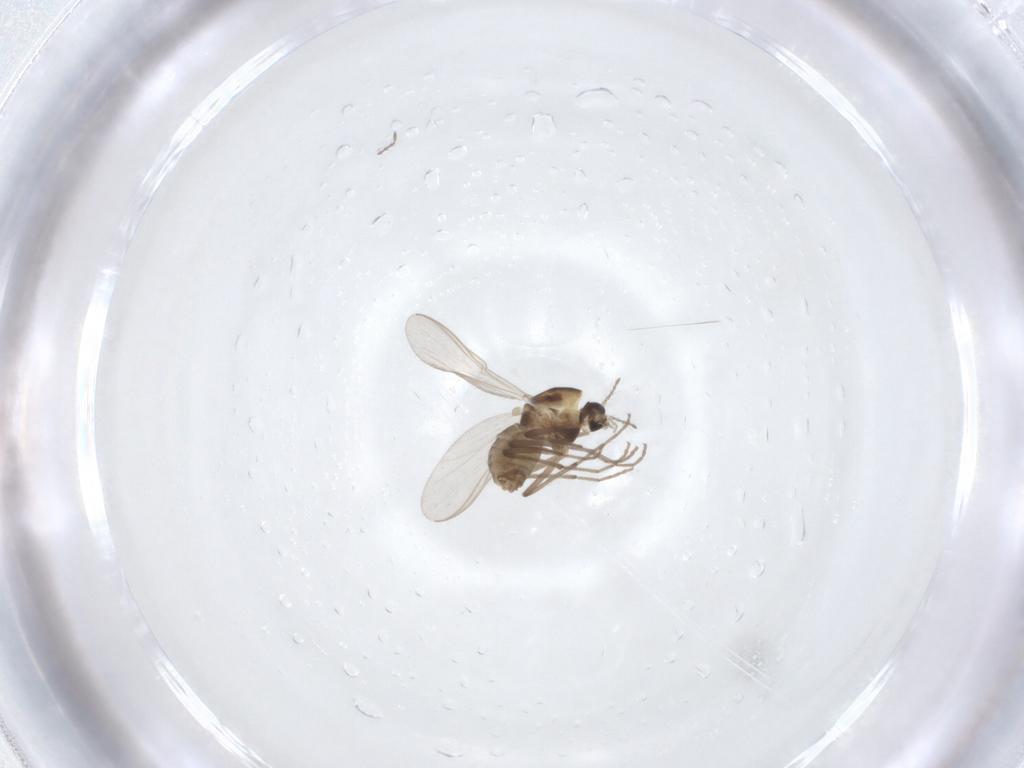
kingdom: Animalia
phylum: Arthropoda
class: Insecta
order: Diptera
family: Chironomidae
